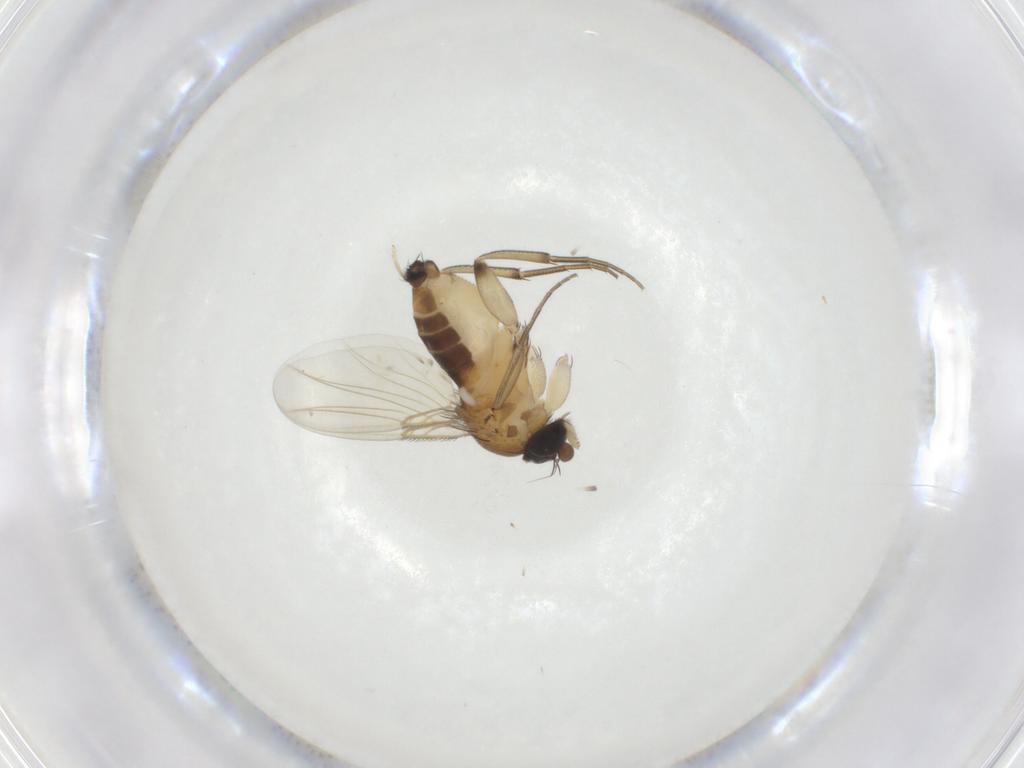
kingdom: Animalia
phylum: Arthropoda
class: Insecta
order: Diptera
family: Phoridae
